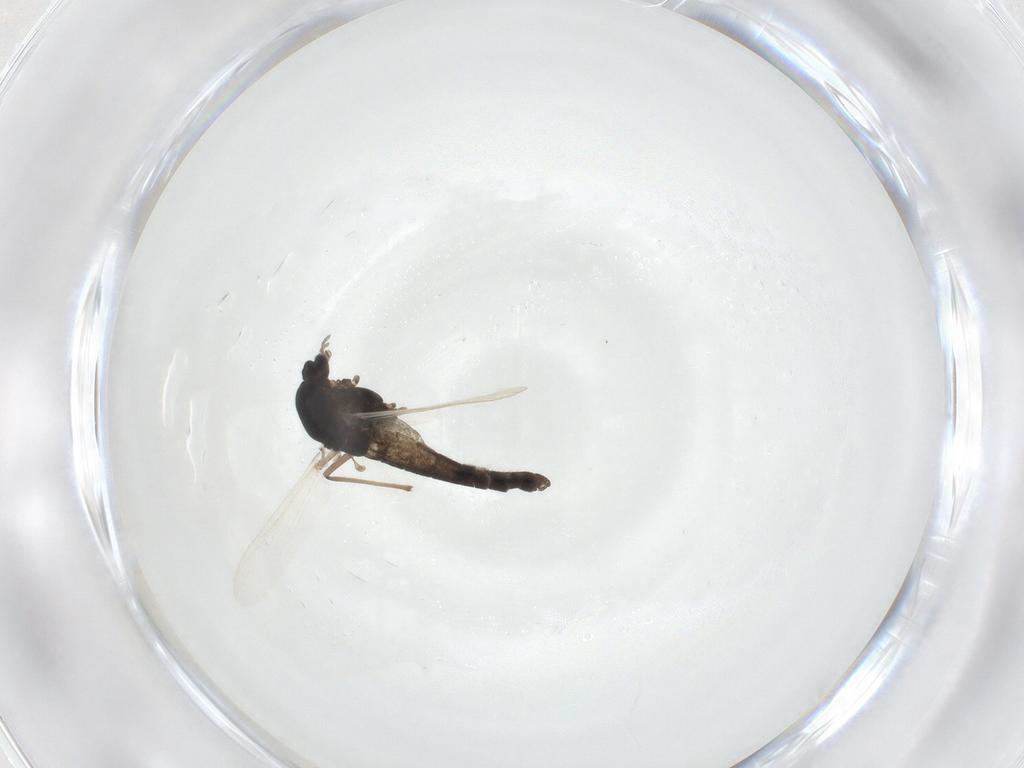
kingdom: Animalia
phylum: Arthropoda
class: Insecta
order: Diptera
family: Chironomidae
